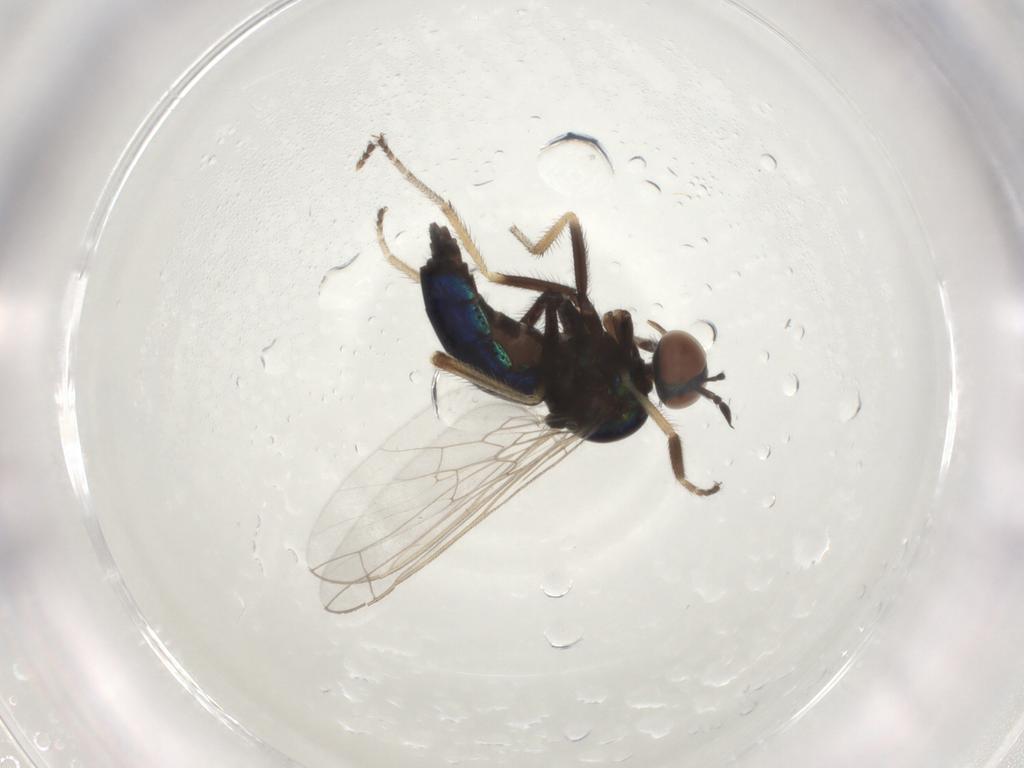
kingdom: Animalia
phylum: Arthropoda
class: Insecta
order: Diptera
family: Empididae
